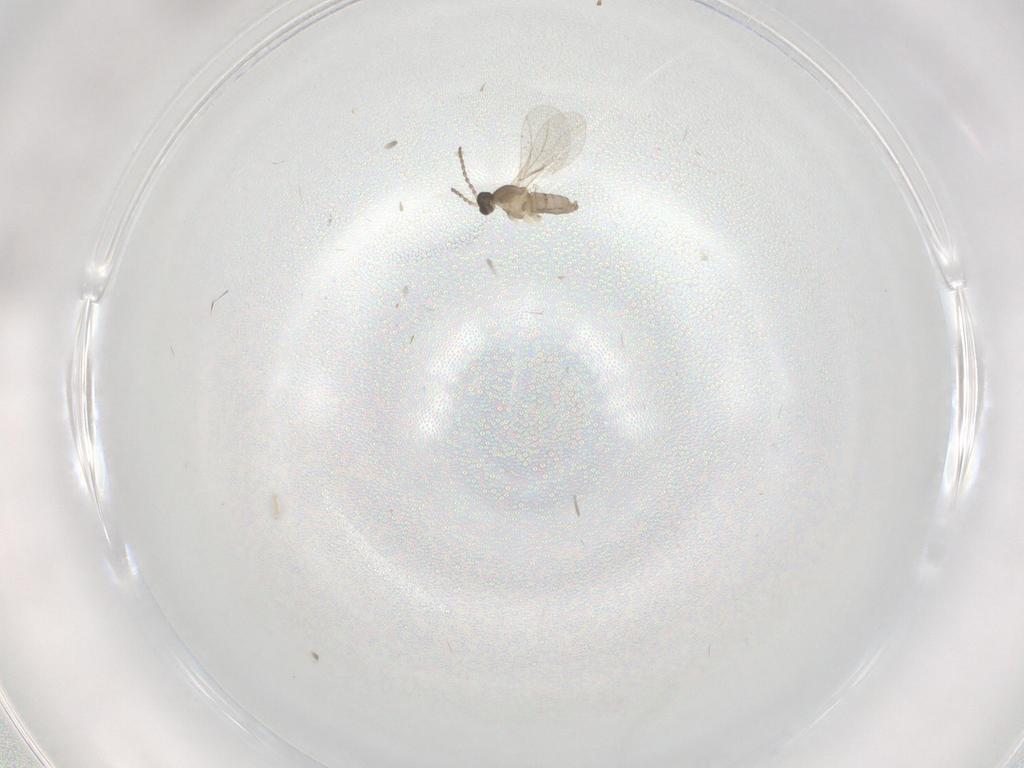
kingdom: Animalia
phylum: Arthropoda
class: Insecta
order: Diptera
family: Cecidomyiidae
